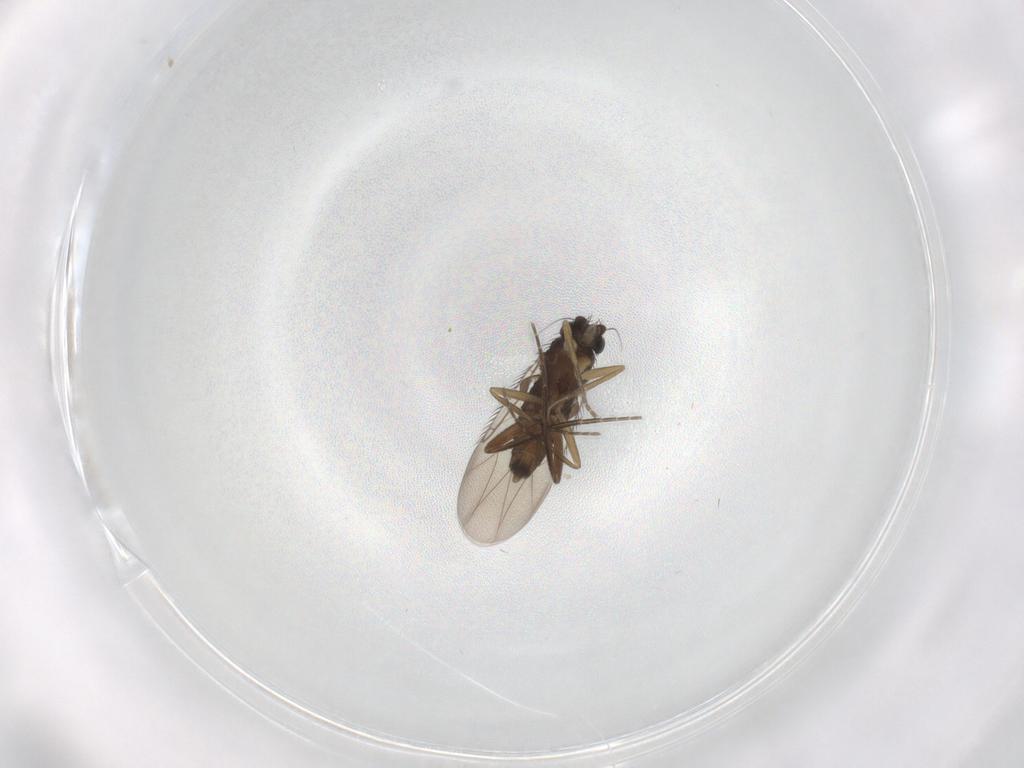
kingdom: Animalia
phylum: Arthropoda
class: Insecta
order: Diptera
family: Phoridae
